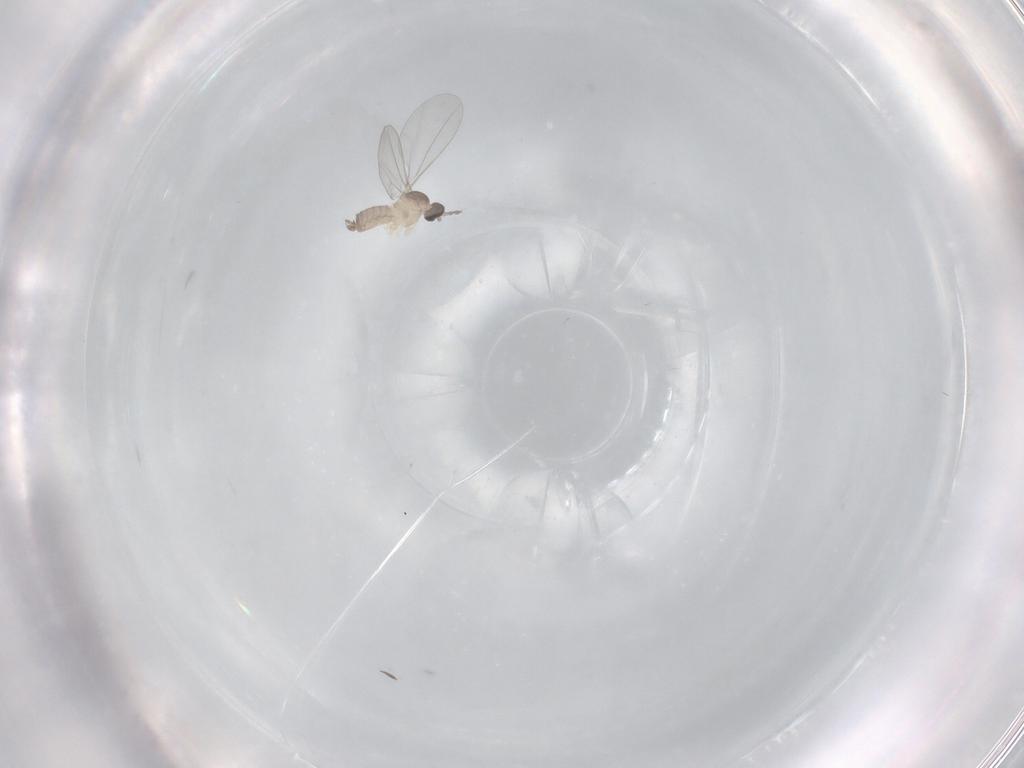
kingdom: Animalia
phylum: Arthropoda
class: Insecta
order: Diptera
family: Cecidomyiidae
